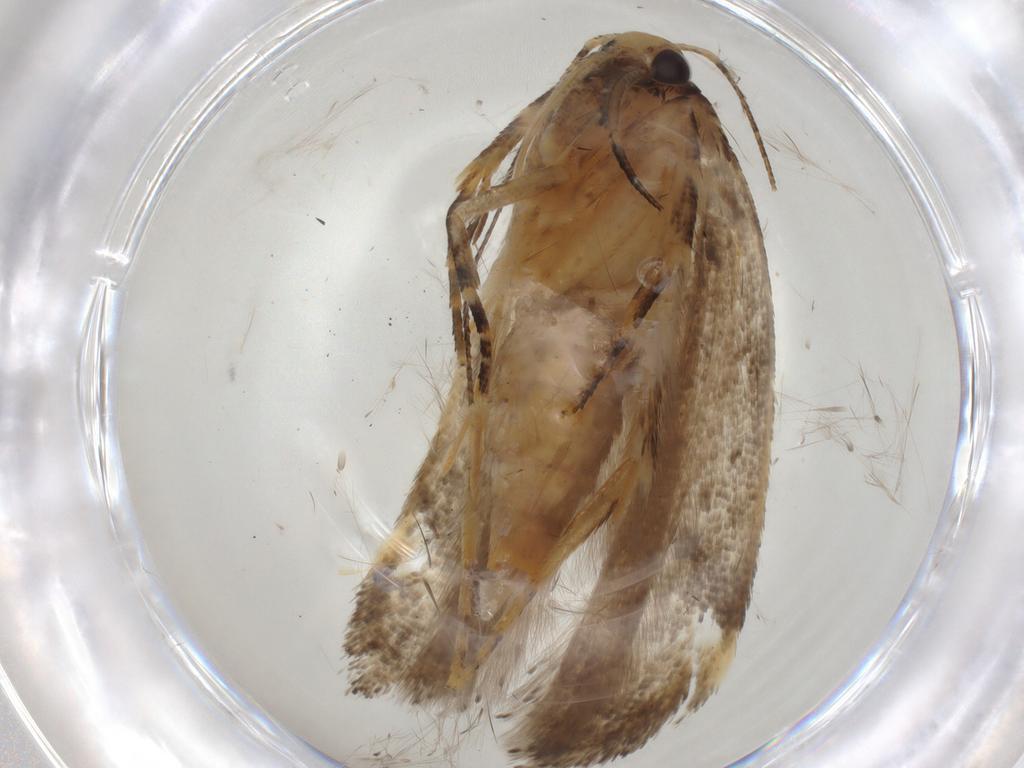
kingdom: Animalia
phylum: Arthropoda
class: Insecta
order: Lepidoptera
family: Gelechiidae
